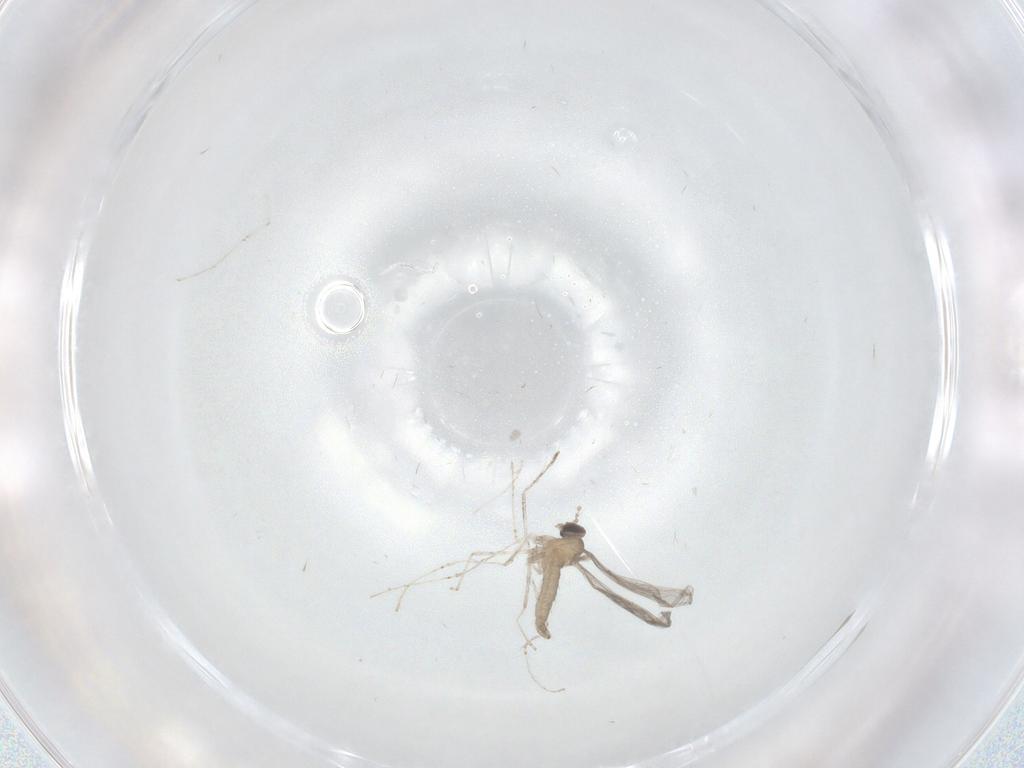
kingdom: Animalia
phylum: Arthropoda
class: Insecta
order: Diptera
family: Cecidomyiidae
